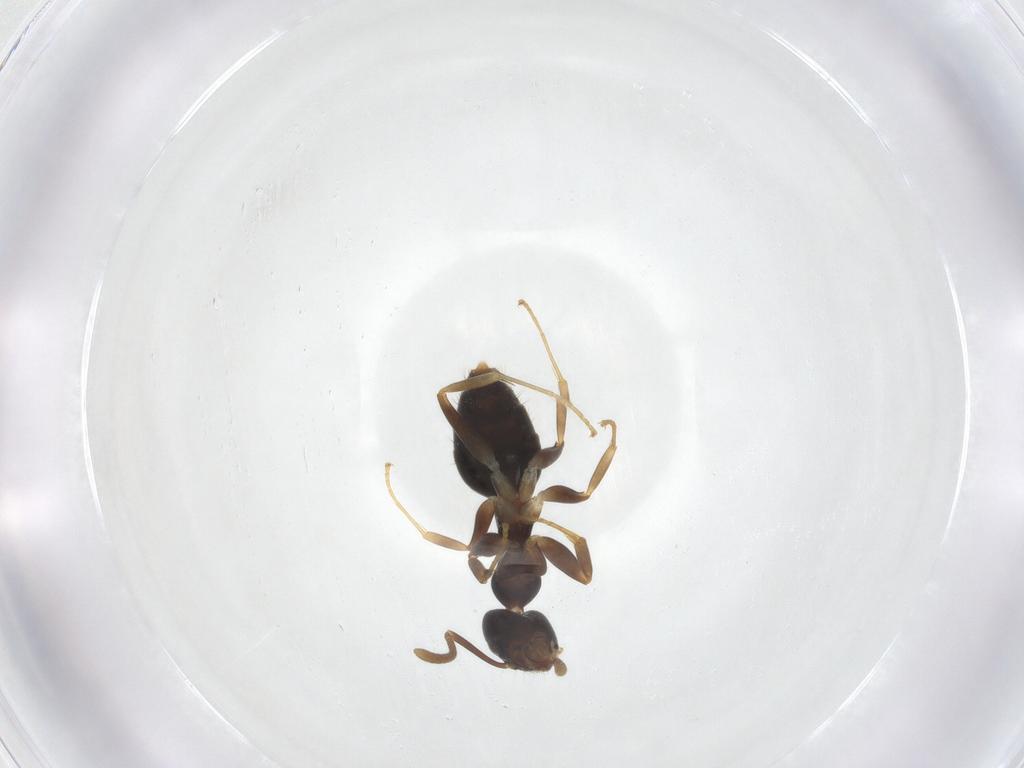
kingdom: Animalia
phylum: Arthropoda
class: Insecta
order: Hymenoptera
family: Formicidae
